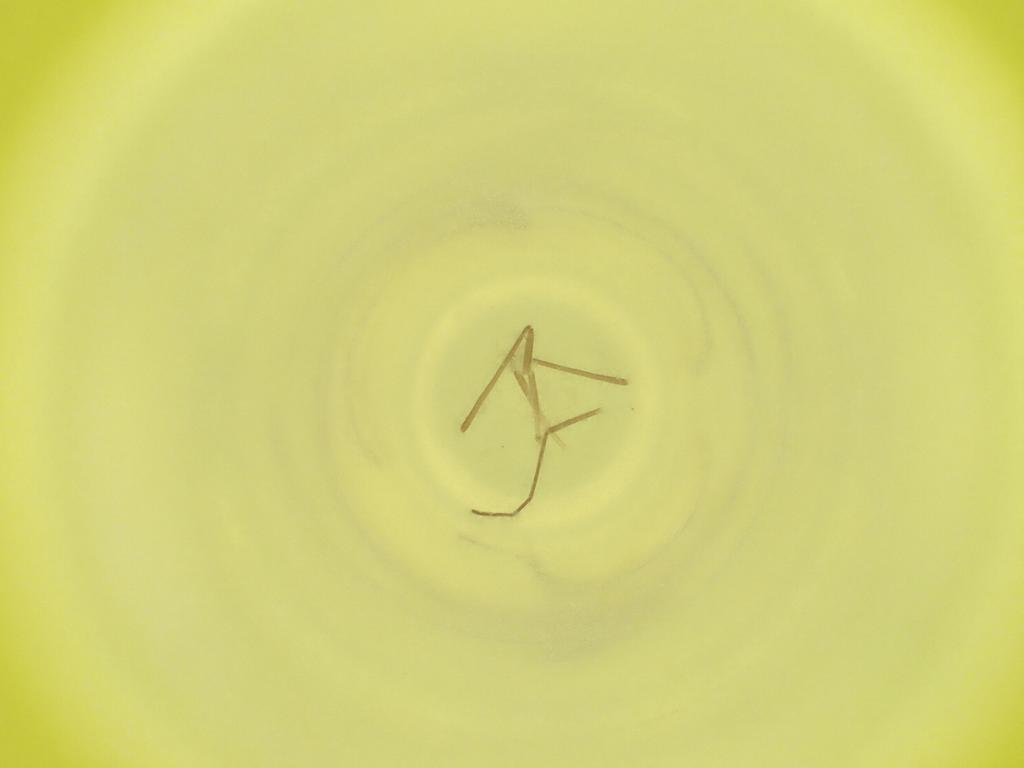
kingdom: Animalia
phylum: Arthropoda
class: Insecta
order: Diptera
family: Cecidomyiidae
